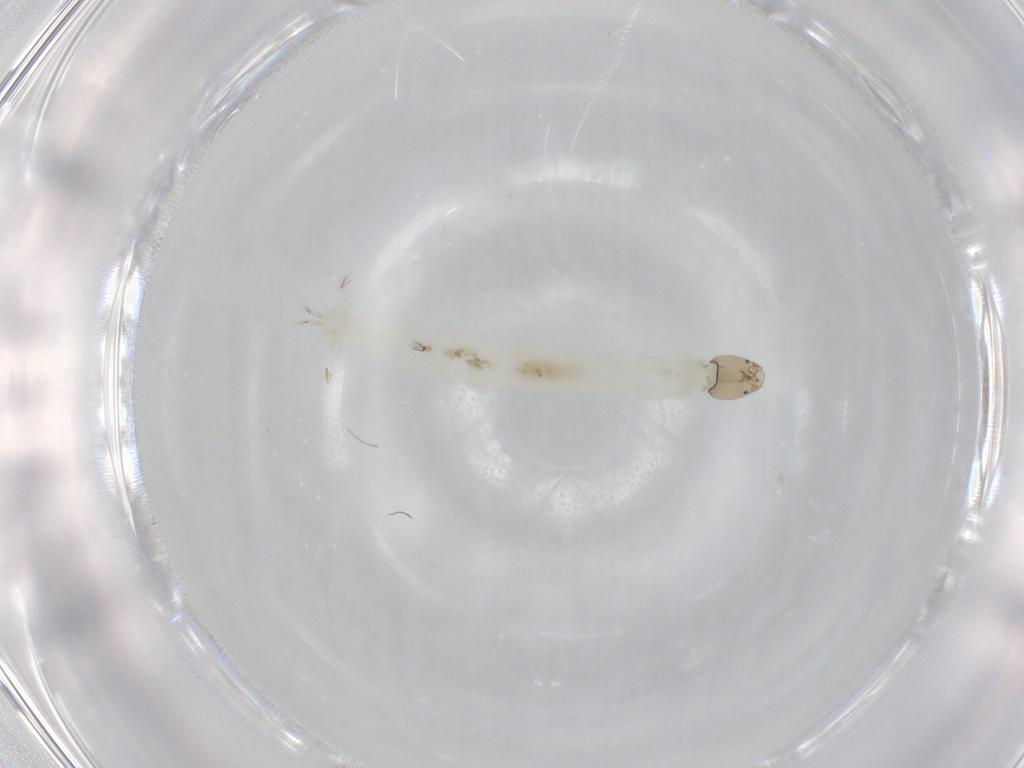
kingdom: Animalia
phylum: Arthropoda
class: Insecta
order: Diptera
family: Chironomidae
